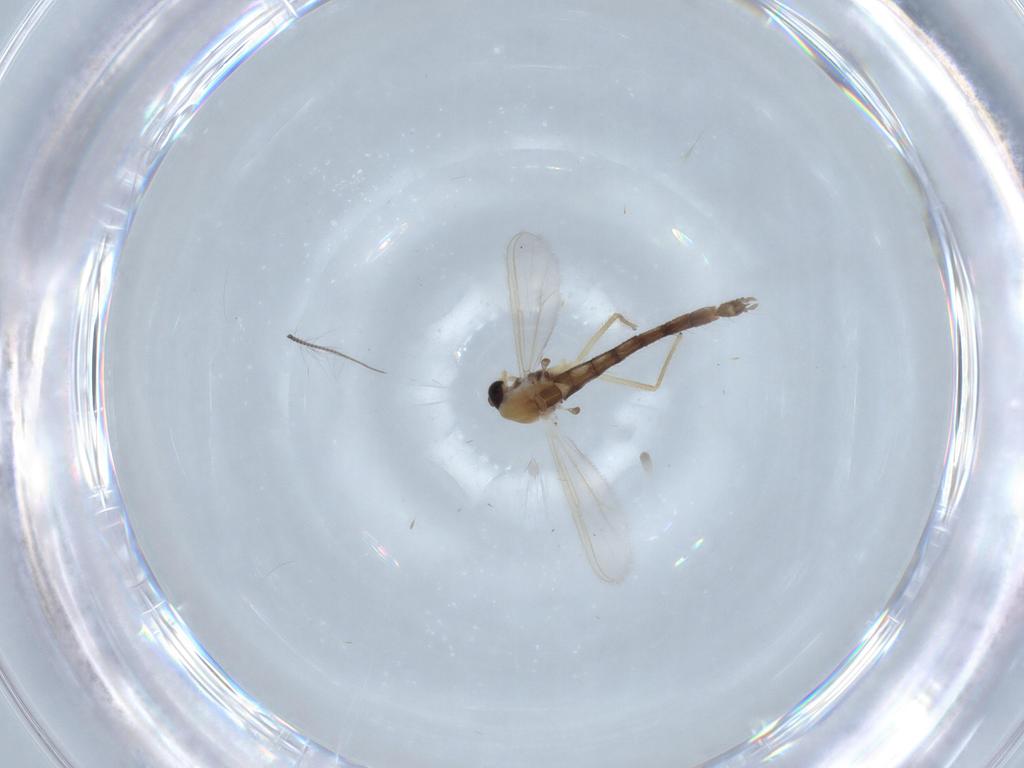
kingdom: Animalia
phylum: Arthropoda
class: Insecta
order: Diptera
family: Chironomidae
